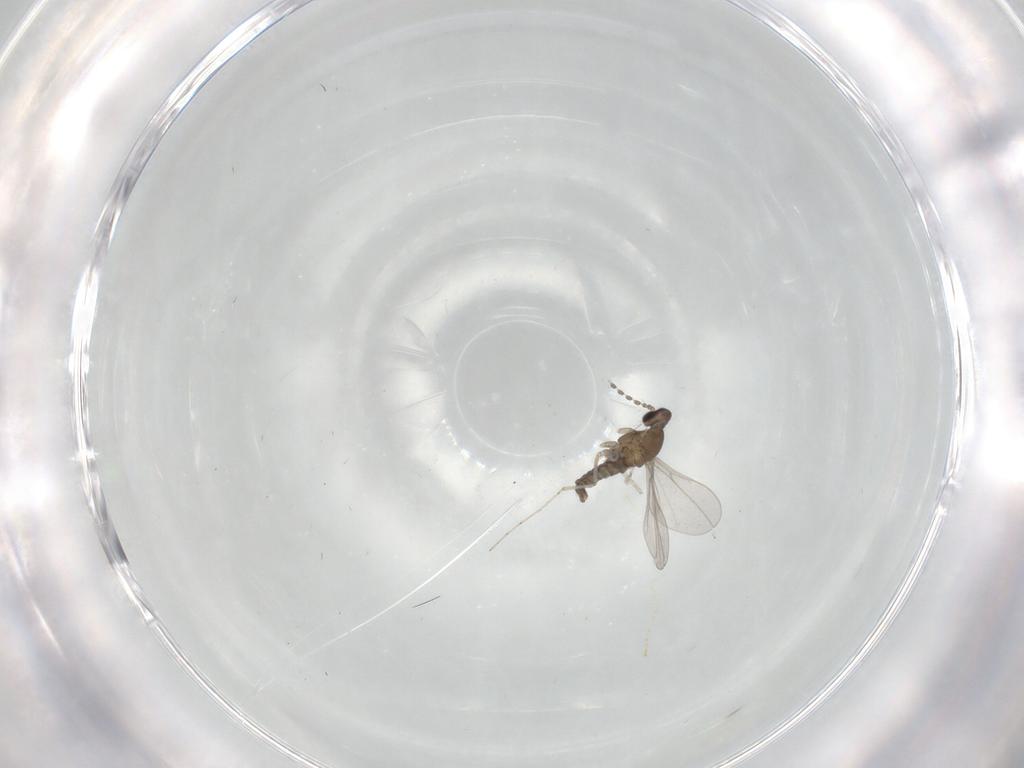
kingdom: Animalia
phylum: Arthropoda
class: Insecta
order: Diptera
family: Cecidomyiidae
